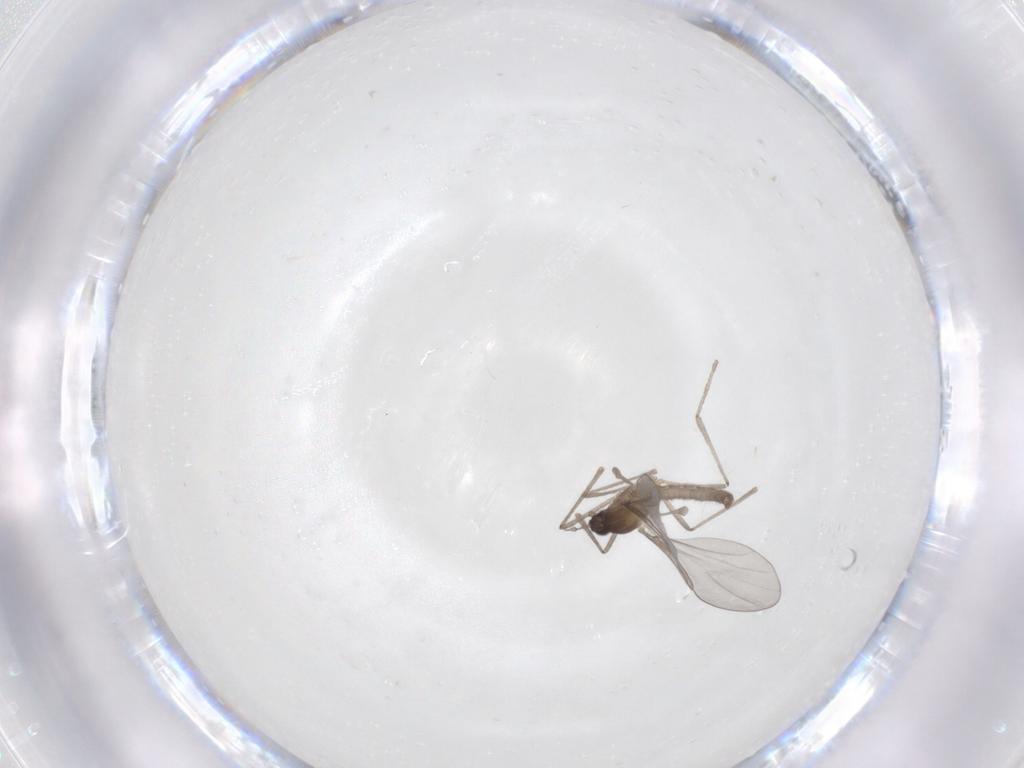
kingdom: Animalia
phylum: Arthropoda
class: Insecta
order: Diptera
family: Cecidomyiidae
